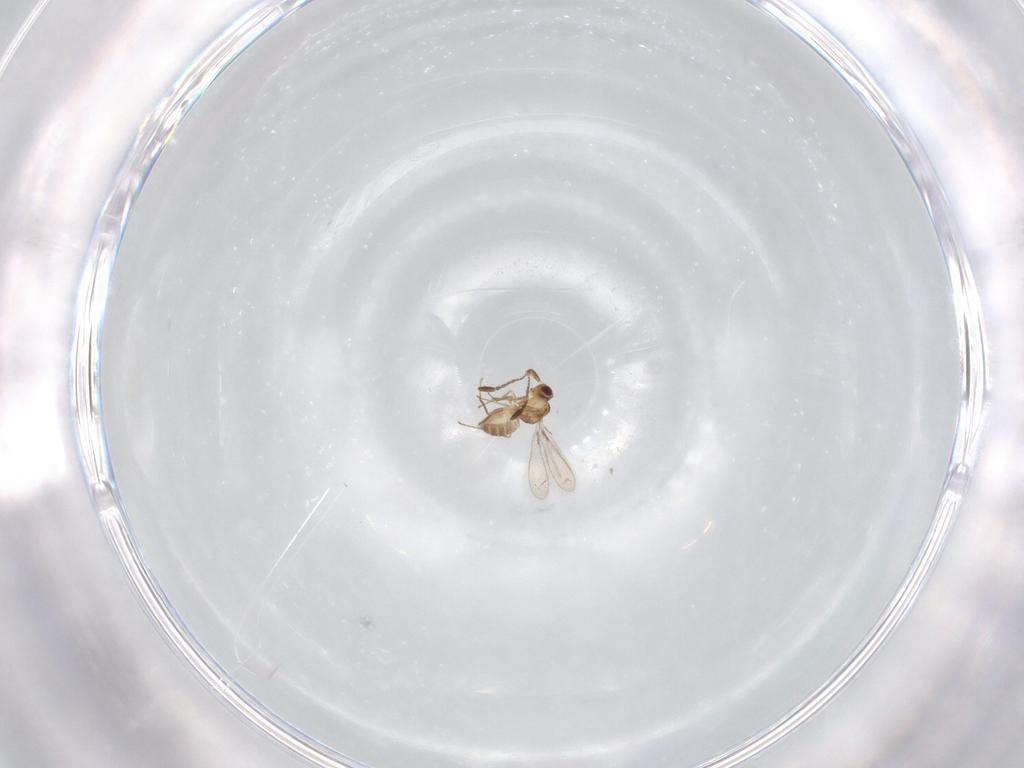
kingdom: Animalia
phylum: Arthropoda
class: Insecta
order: Hymenoptera
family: Mymaridae
